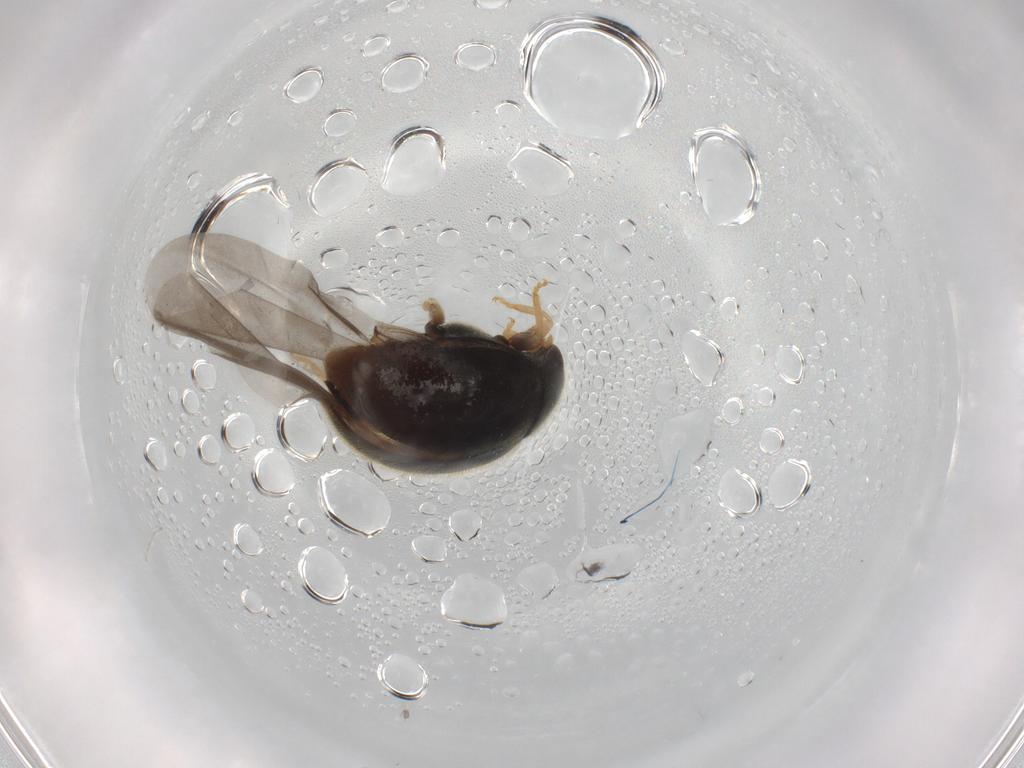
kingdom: Animalia
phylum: Arthropoda
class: Insecta
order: Coleoptera
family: Coccinellidae
